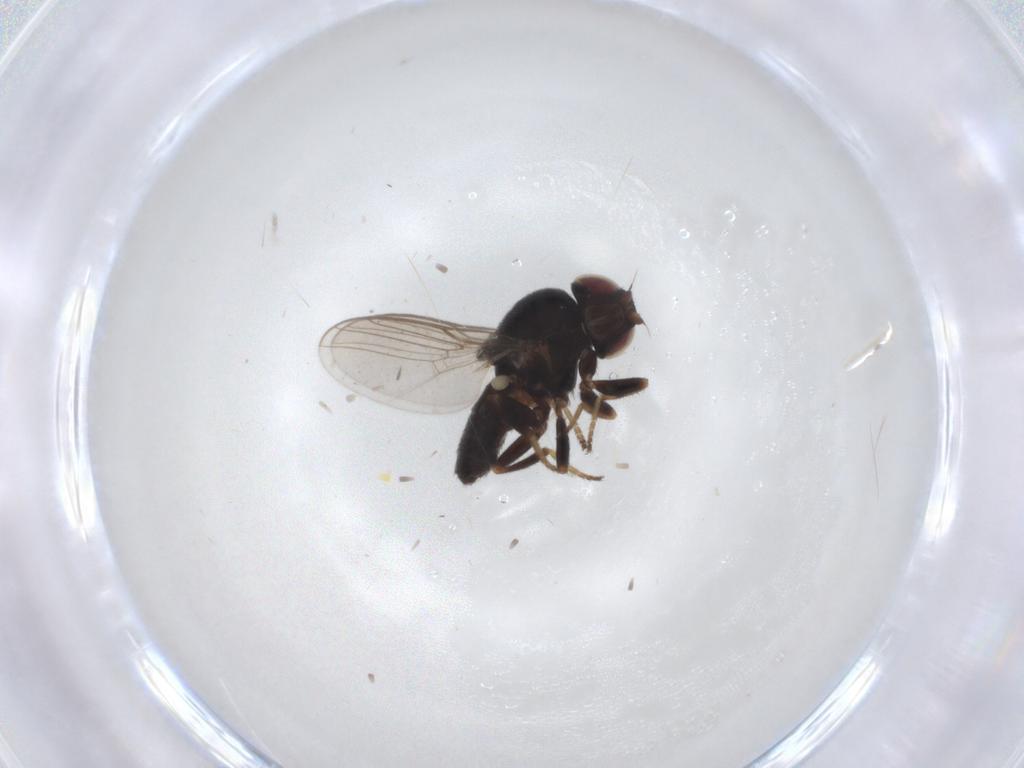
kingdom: Animalia
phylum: Arthropoda
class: Insecta
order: Diptera
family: Chloropidae
